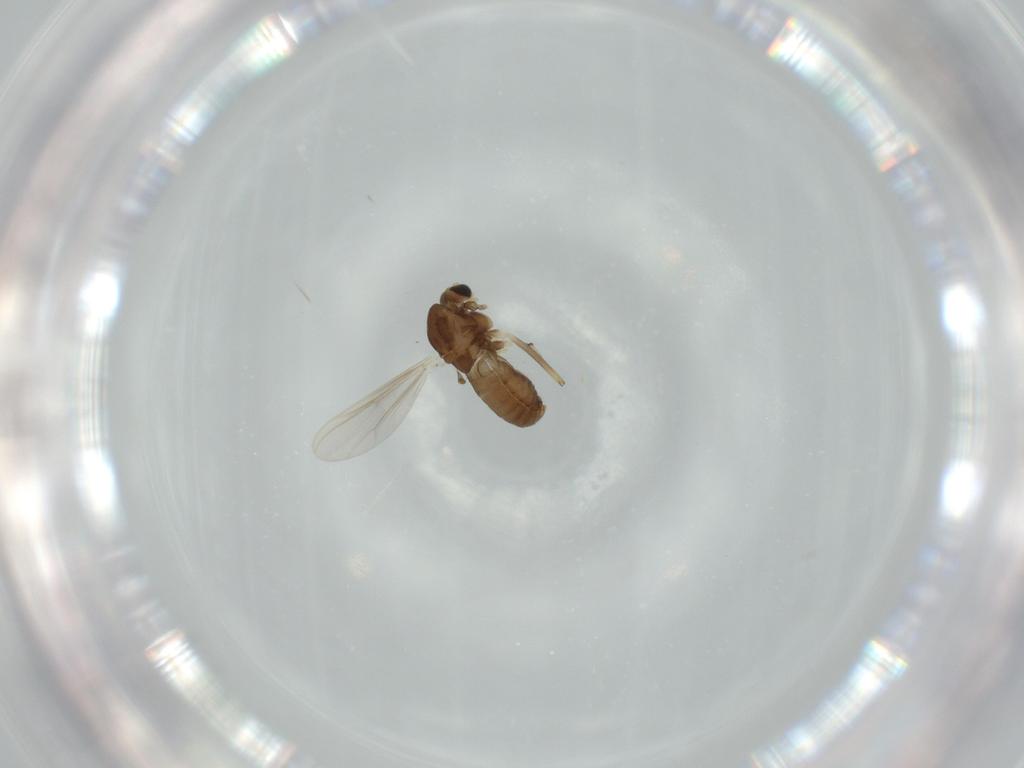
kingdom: Animalia
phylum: Arthropoda
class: Insecta
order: Diptera
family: Chironomidae
